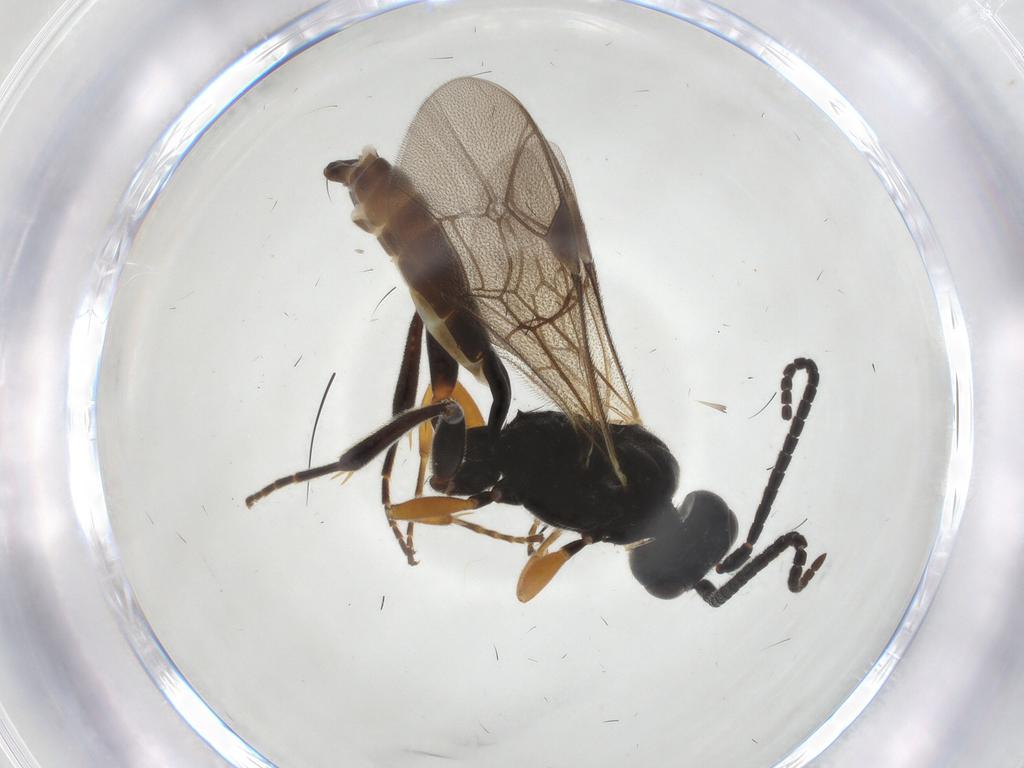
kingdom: Animalia
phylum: Arthropoda
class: Insecta
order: Hymenoptera
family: Ichneumonidae
